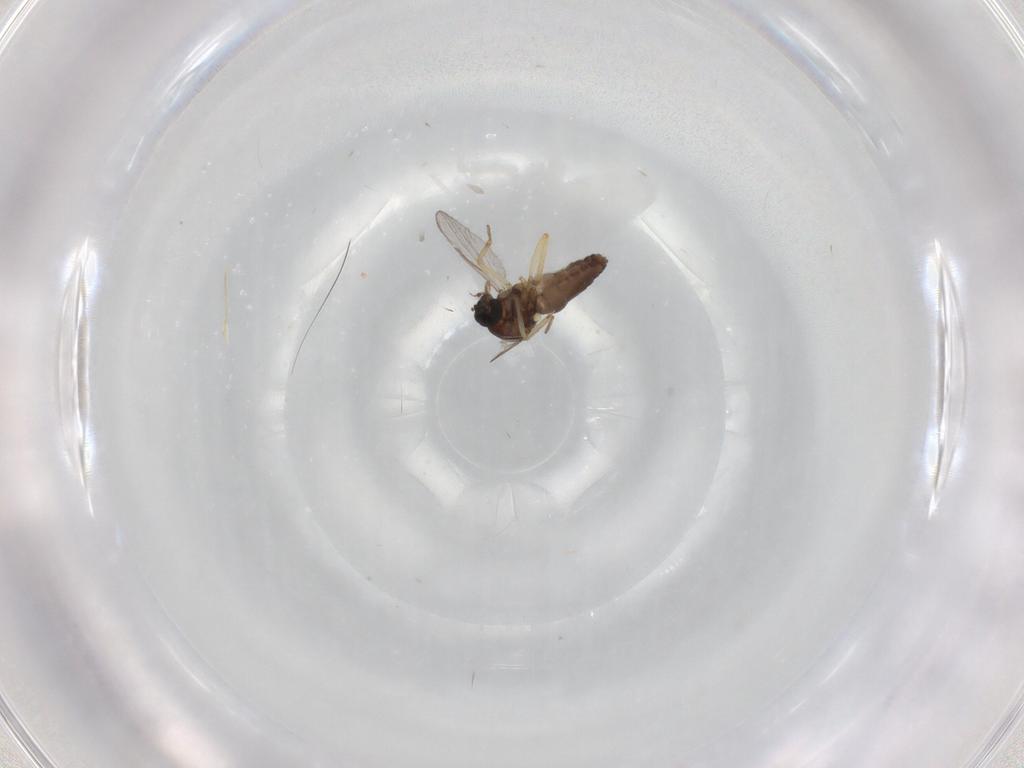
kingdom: Animalia
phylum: Arthropoda
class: Insecta
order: Diptera
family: Ceratopogonidae
